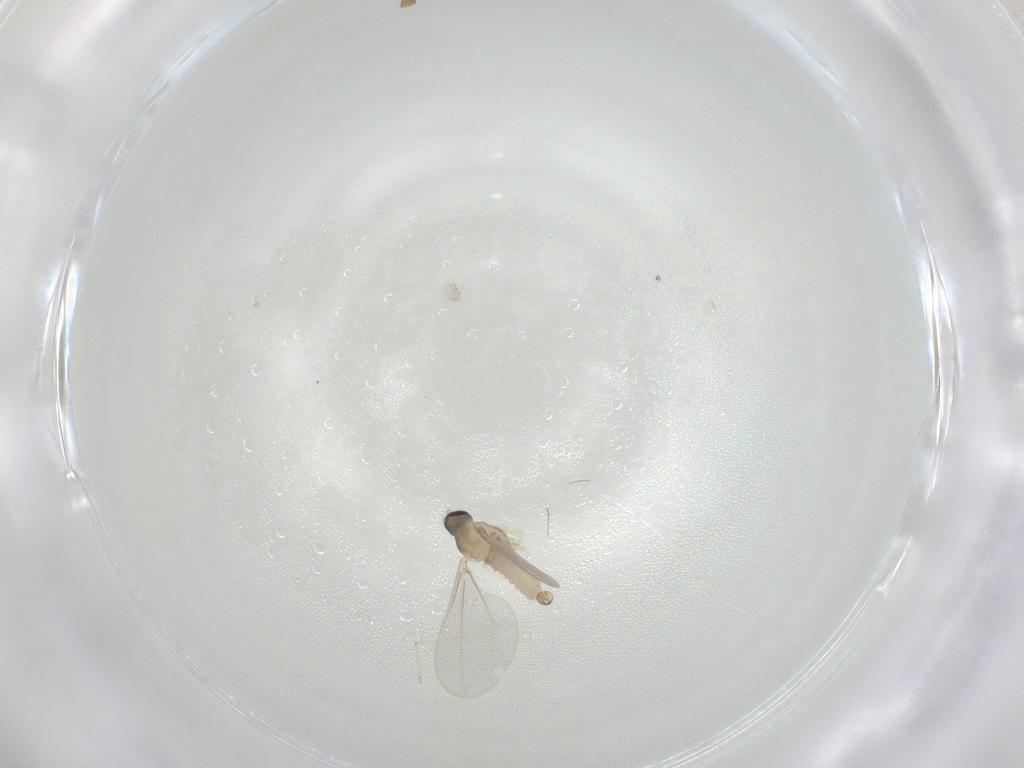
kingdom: Animalia
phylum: Arthropoda
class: Insecta
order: Diptera
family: Cecidomyiidae
